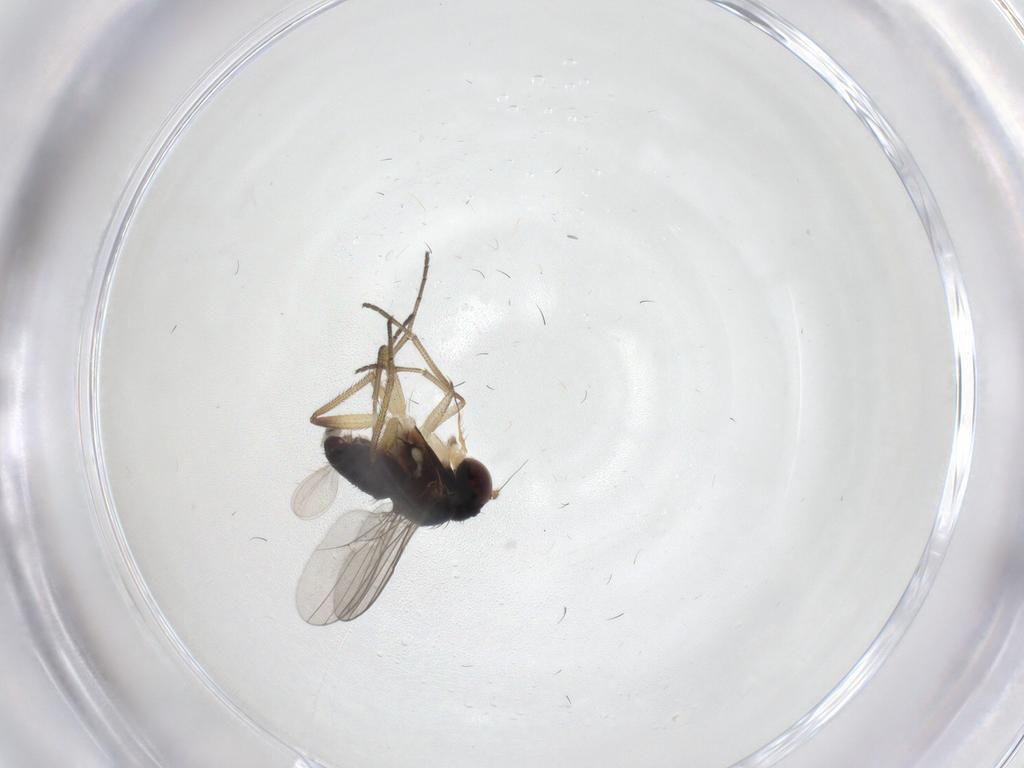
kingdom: Animalia
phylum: Arthropoda
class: Insecta
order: Diptera
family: Dolichopodidae
